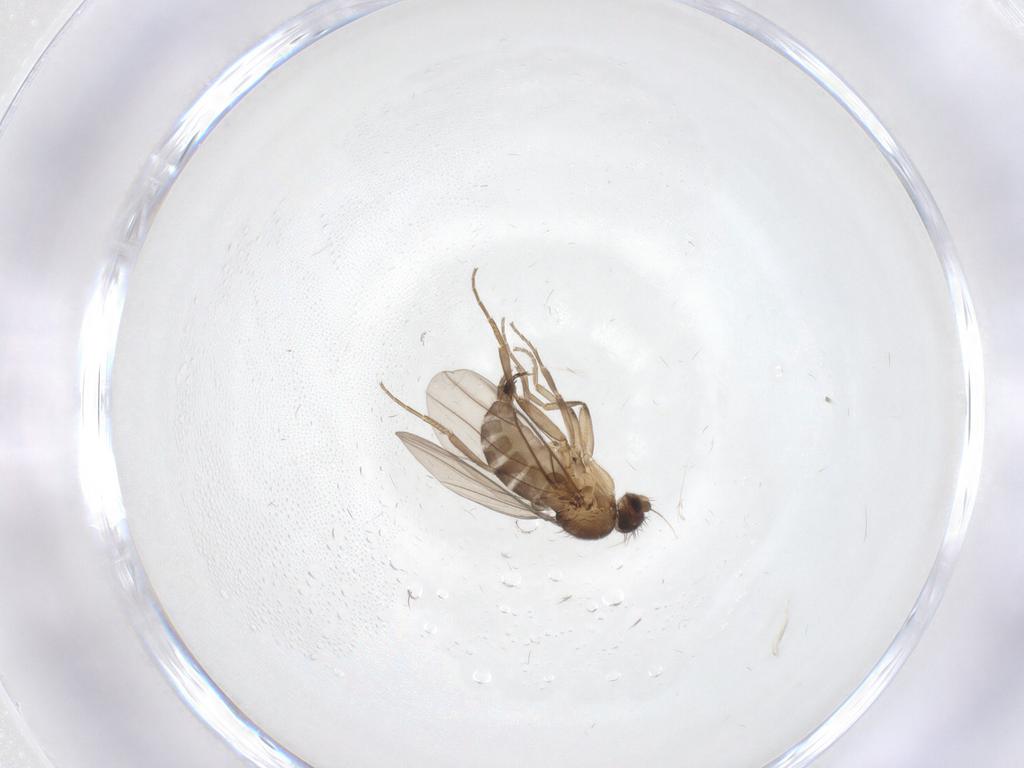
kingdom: Animalia
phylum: Arthropoda
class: Insecta
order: Diptera
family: Phoridae
